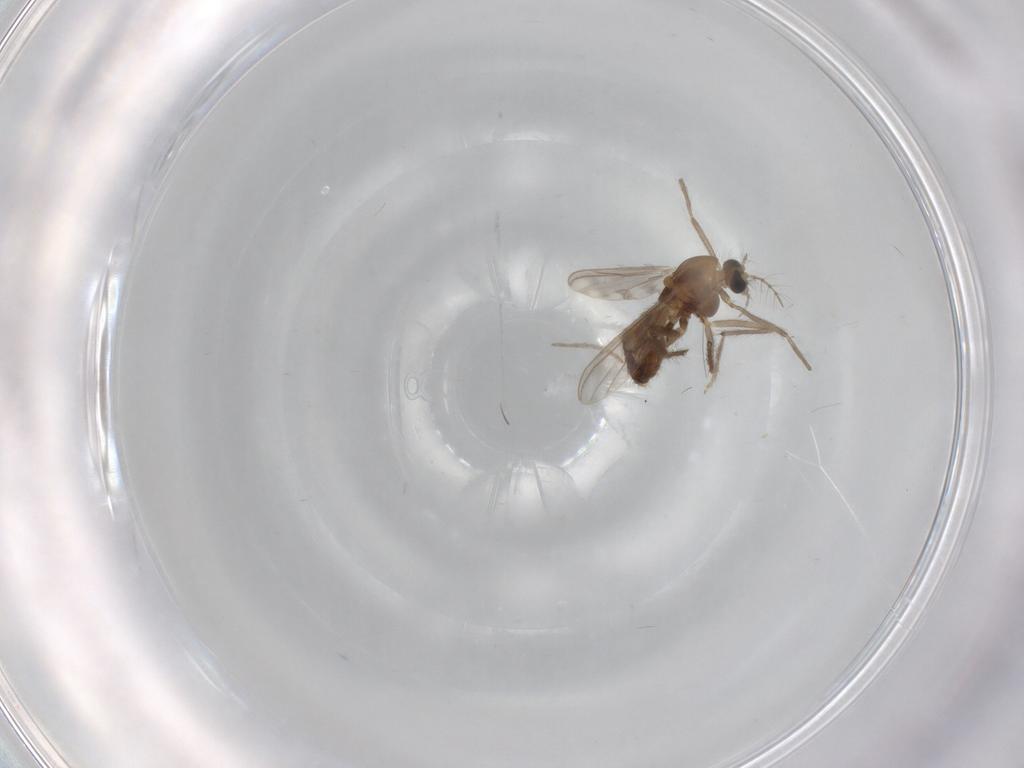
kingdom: Animalia
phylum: Arthropoda
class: Insecta
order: Diptera
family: Chironomidae
